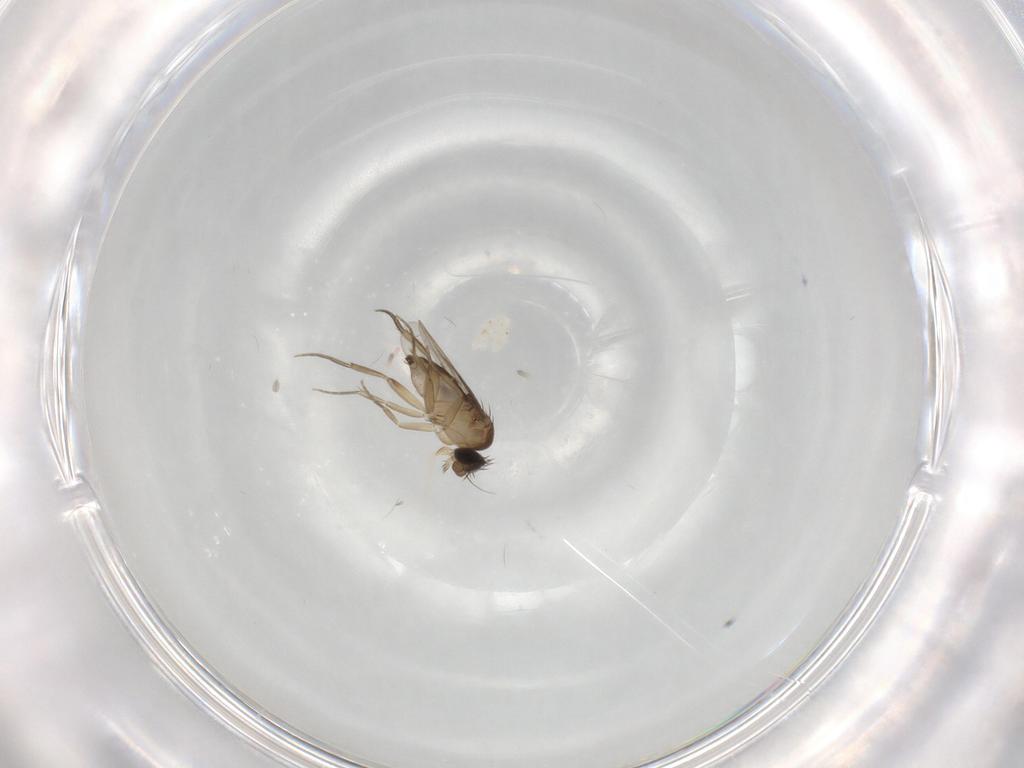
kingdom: Animalia
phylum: Arthropoda
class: Insecta
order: Diptera
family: Phoridae
